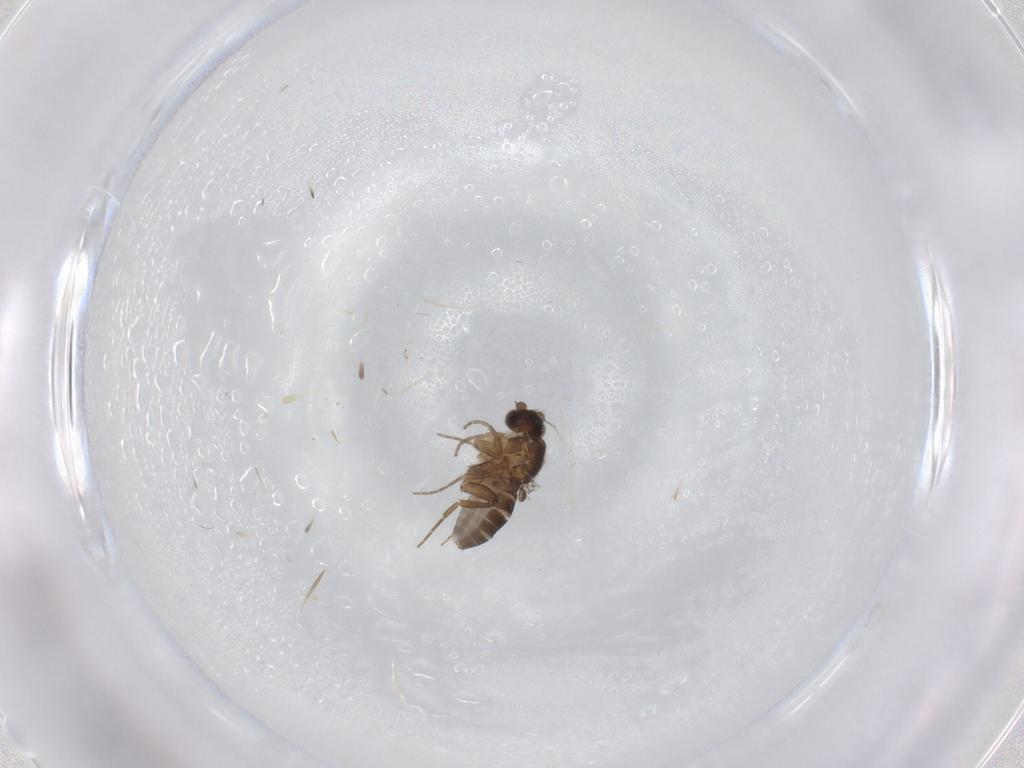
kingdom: Animalia
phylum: Arthropoda
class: Insecta
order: Diptera
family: Phoridae
